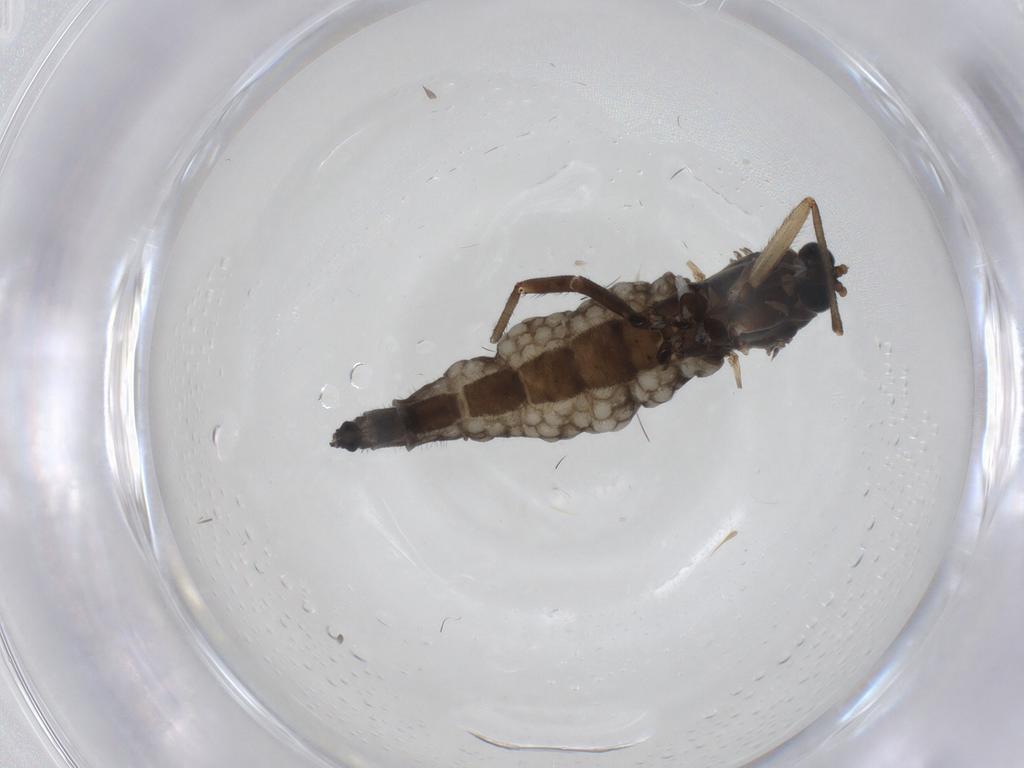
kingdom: Animalia
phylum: Arthropoda
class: Insecta
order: Diptera
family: Sciaridae
